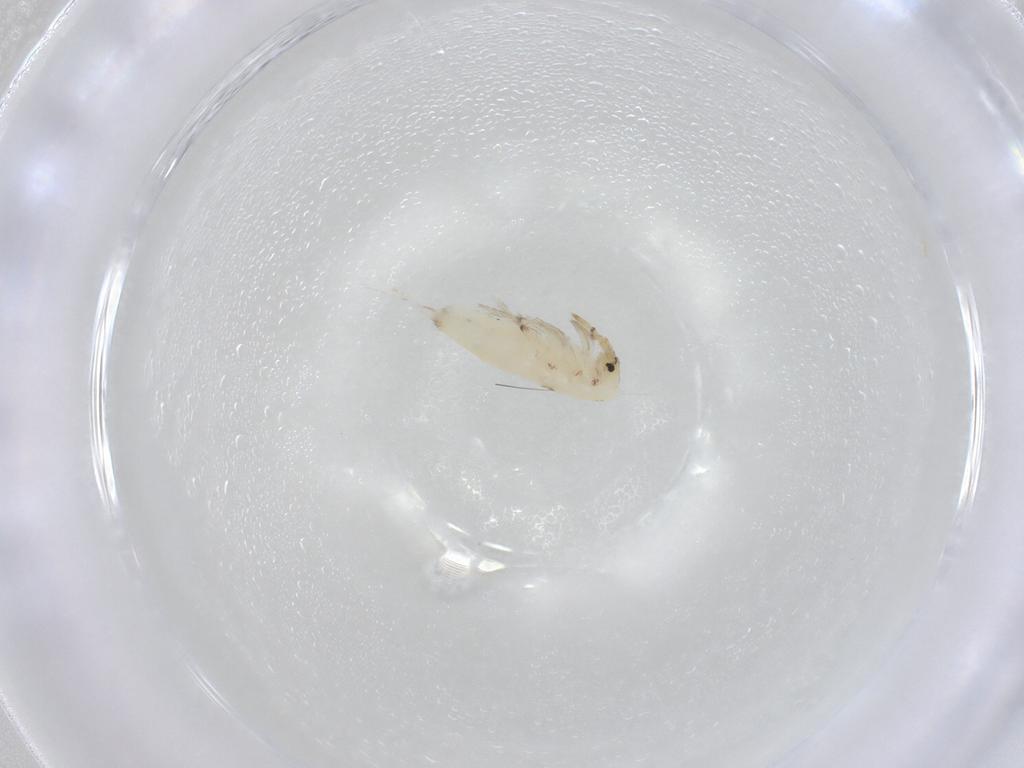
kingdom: Animalia
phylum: Arthropoda
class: Collembola
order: Entomobryomorpha
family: Entomobryidae
